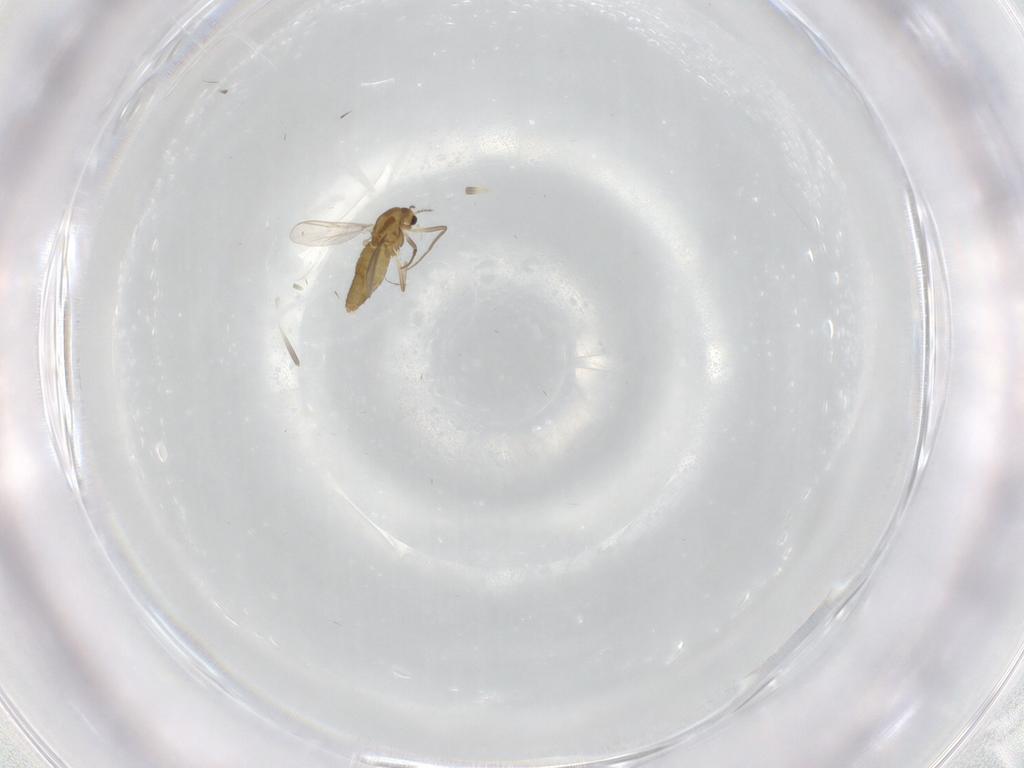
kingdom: Animalia
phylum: Arthropoda
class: Insecta
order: Diptera
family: Chironomidae
